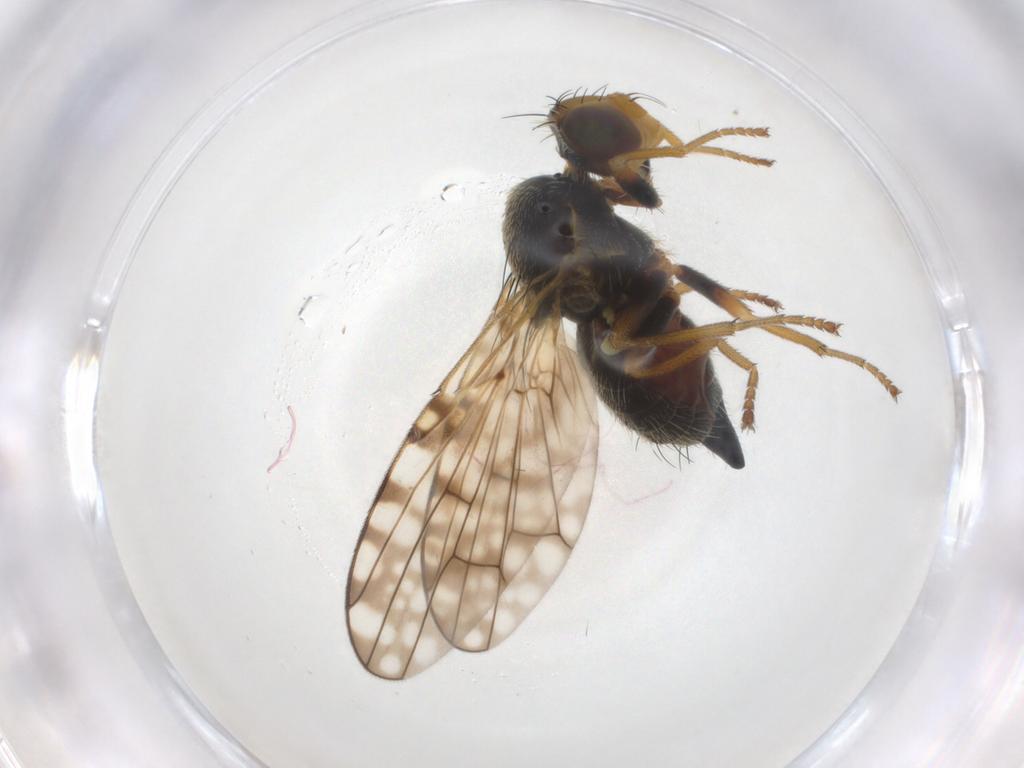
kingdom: Animalia
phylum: Arthropoda
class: Insecta
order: Diptera
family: Tephritidae
